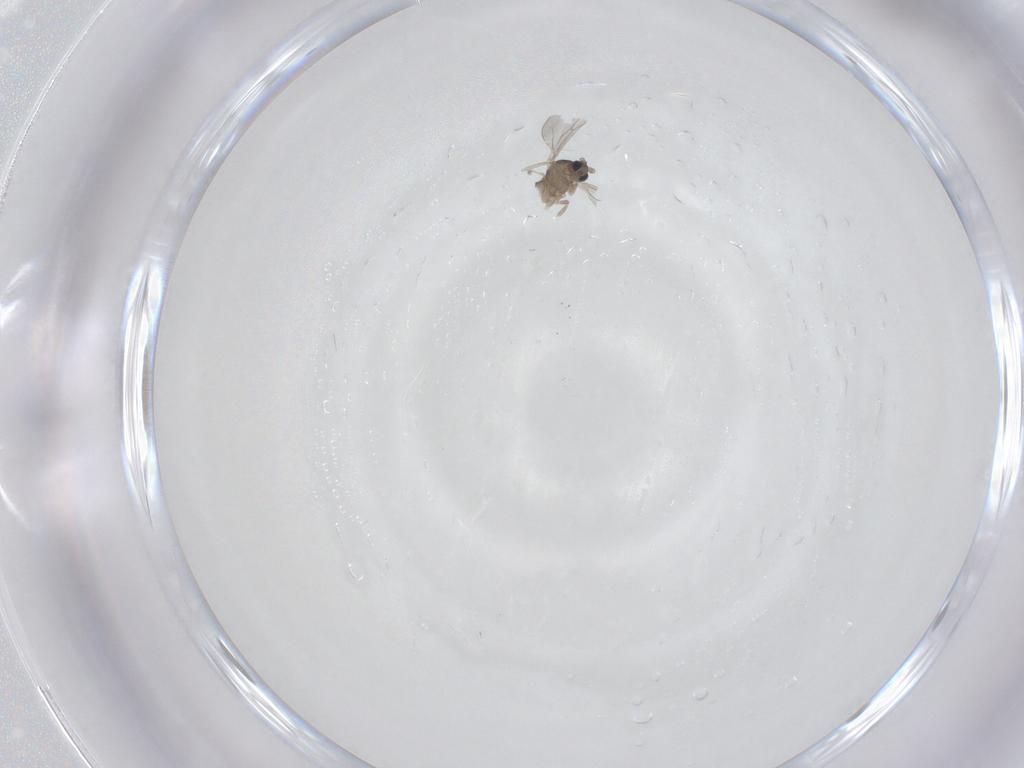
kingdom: Animalia
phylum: Arthropoda
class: Insecta
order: Diptera
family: Cecidomyiidae
